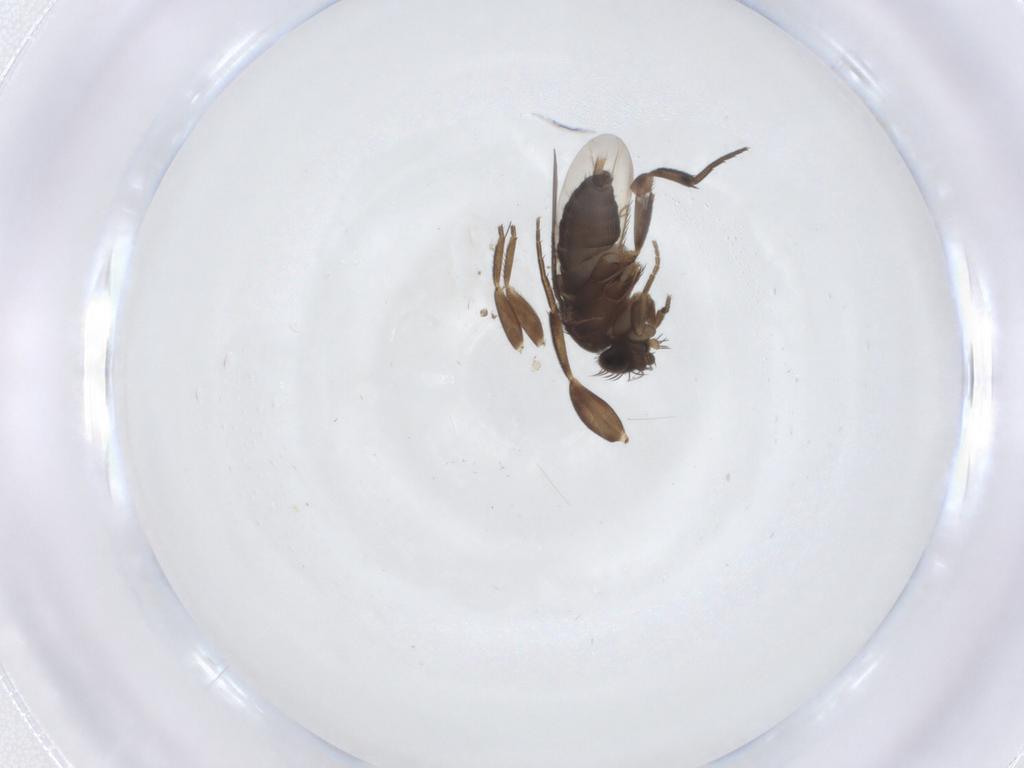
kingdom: Animalia
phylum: Arthropoda
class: Insecta
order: Diptera
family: Phoridae
